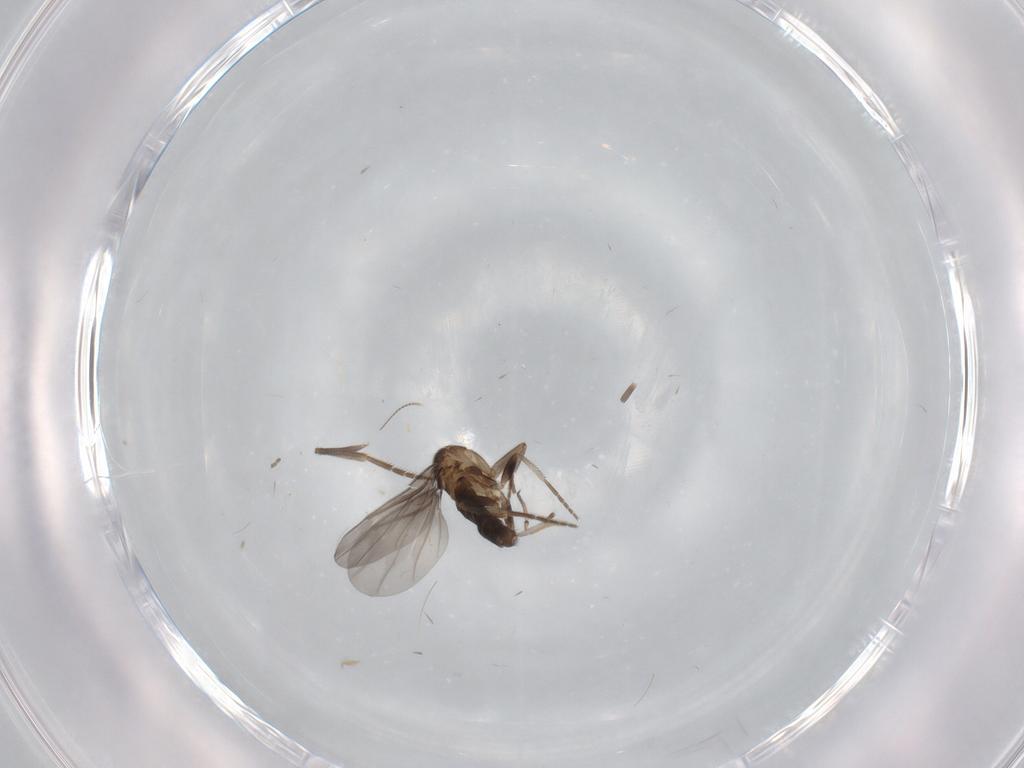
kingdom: Animalia
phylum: Arthropoda
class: Insecta
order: Diptera
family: Phoridae
